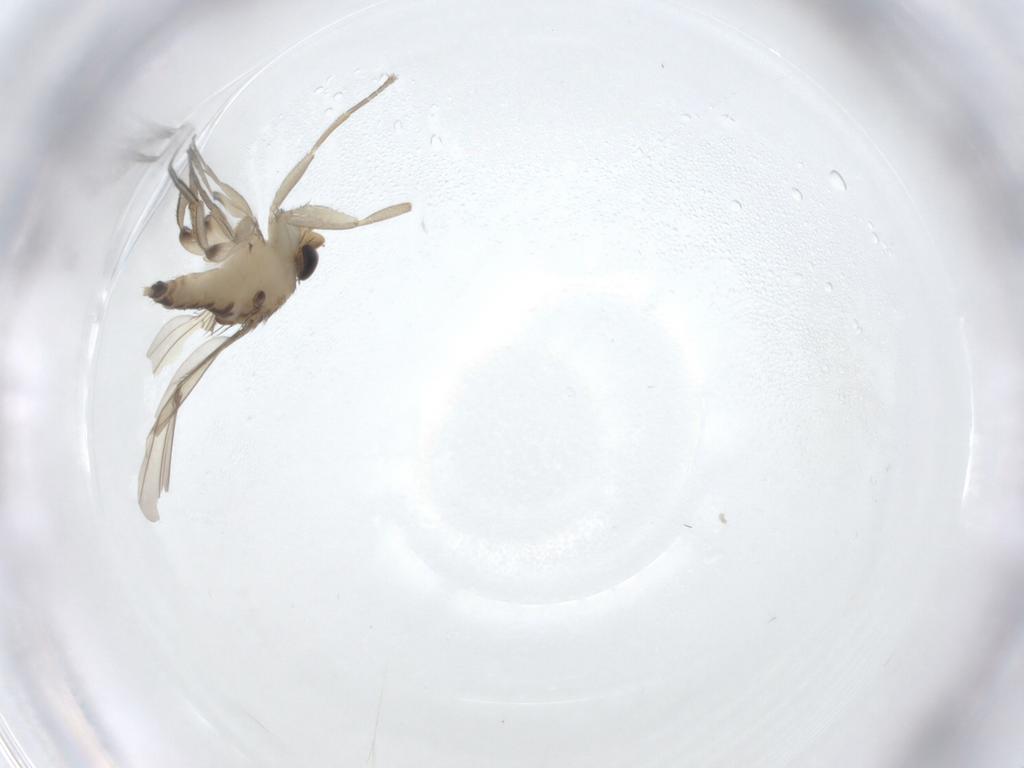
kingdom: Animalia
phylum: Arthropoda
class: Insecta
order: Diptera
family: Phoridae
